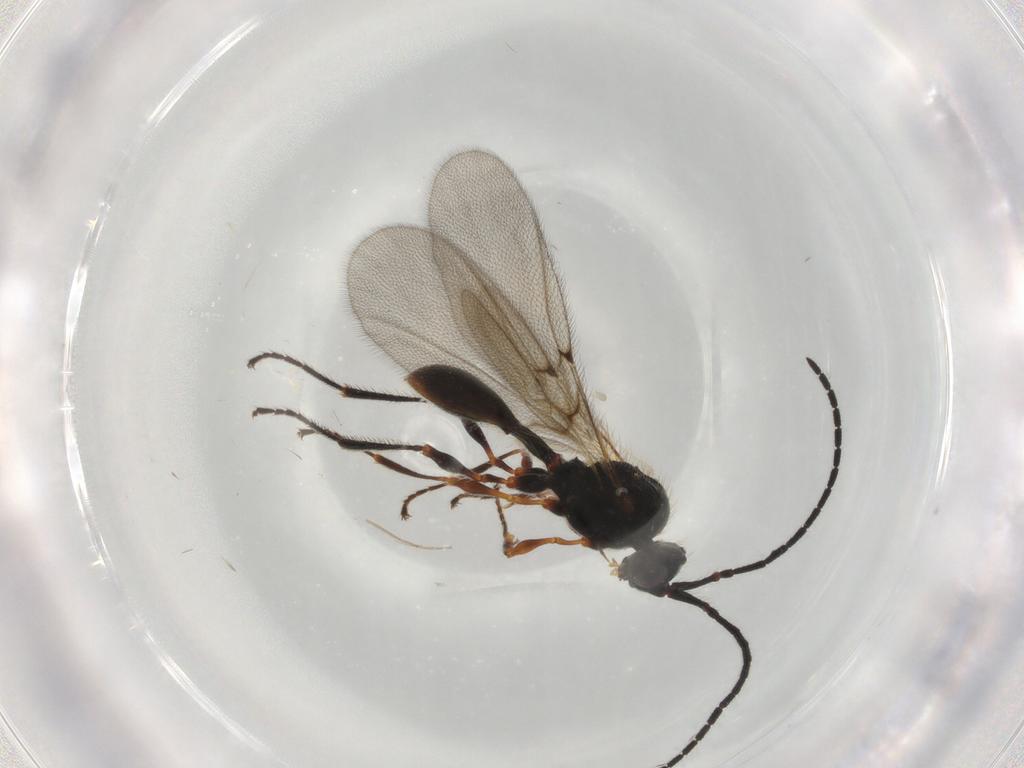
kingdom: Animalia
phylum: Arthropoda
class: Insecta
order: Hymenoptera
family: Diapriidae
